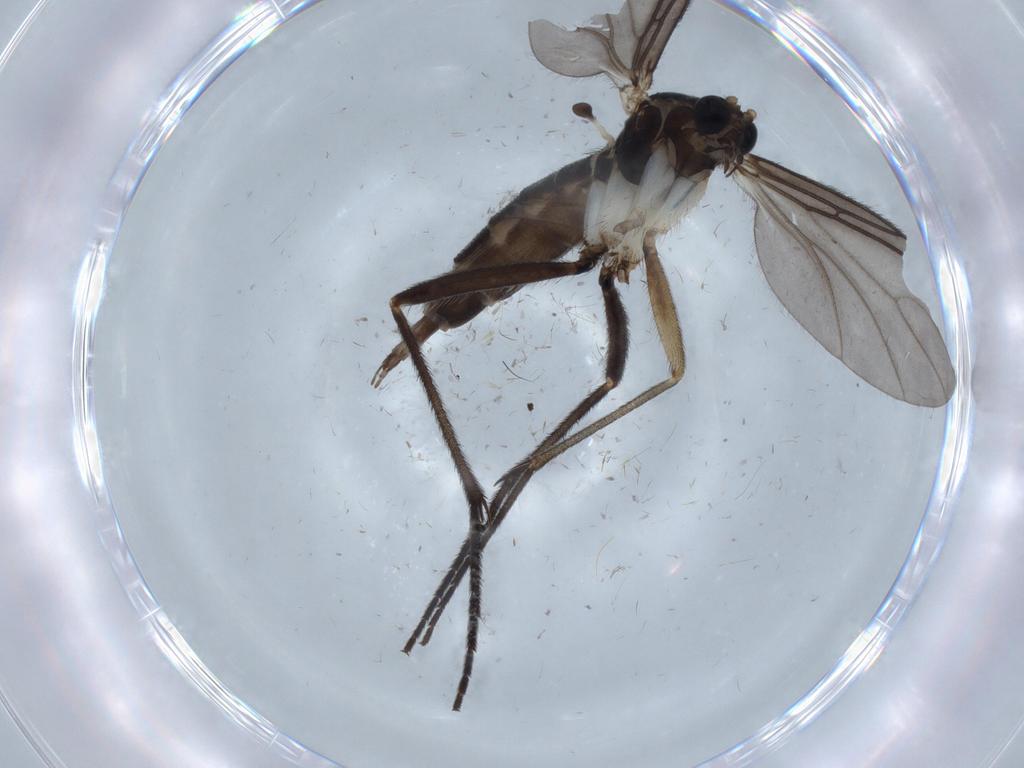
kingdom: Animalia
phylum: Arthropoda
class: Insecta
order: Diptera
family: Sciaridae
